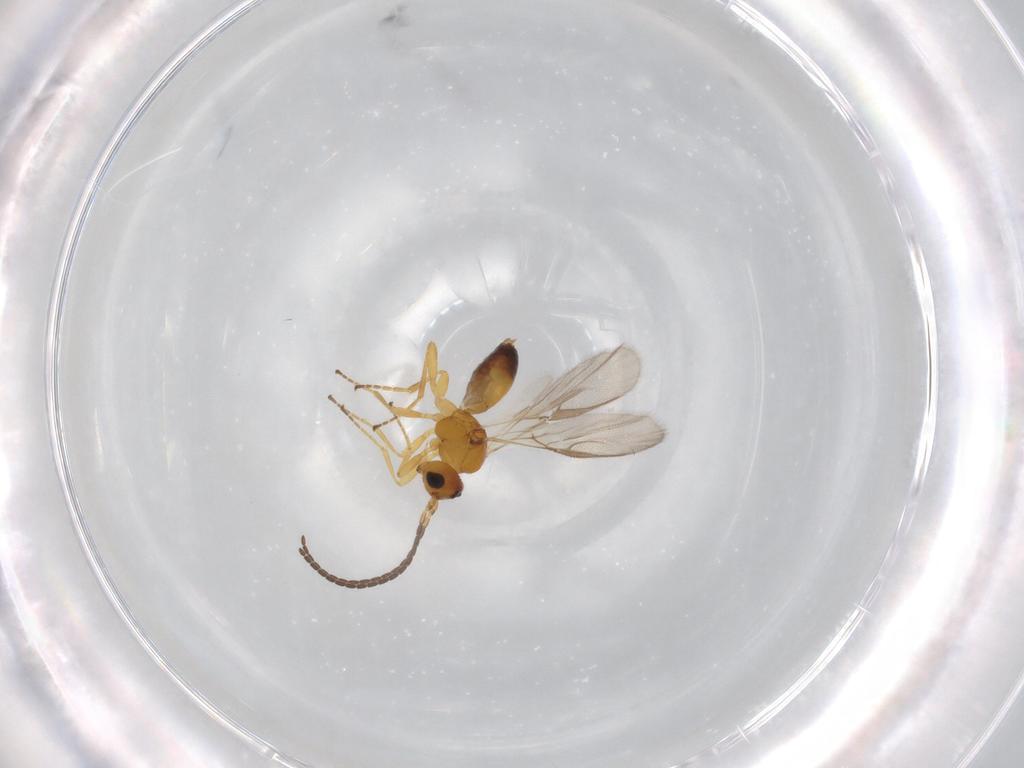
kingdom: Animalia
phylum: Arthropoda
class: Insecta
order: Hymenoptera
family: Braconidae
